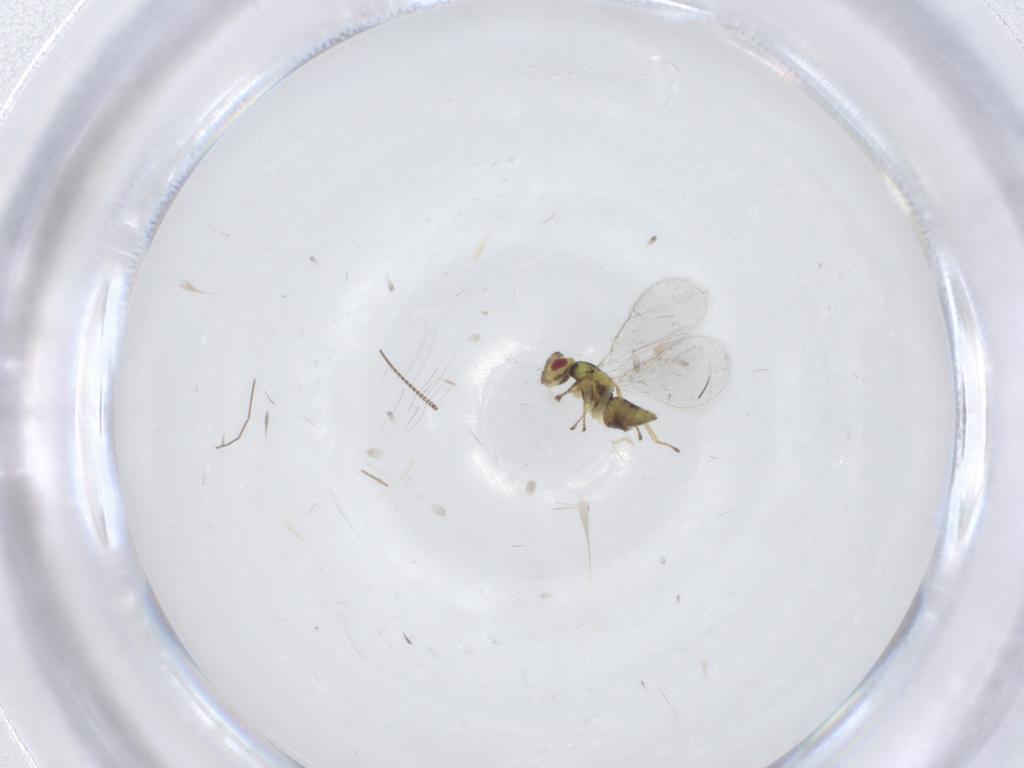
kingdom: Animalia
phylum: Arthropoda
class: Insecta
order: Hymenoptera
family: Eulophidae
